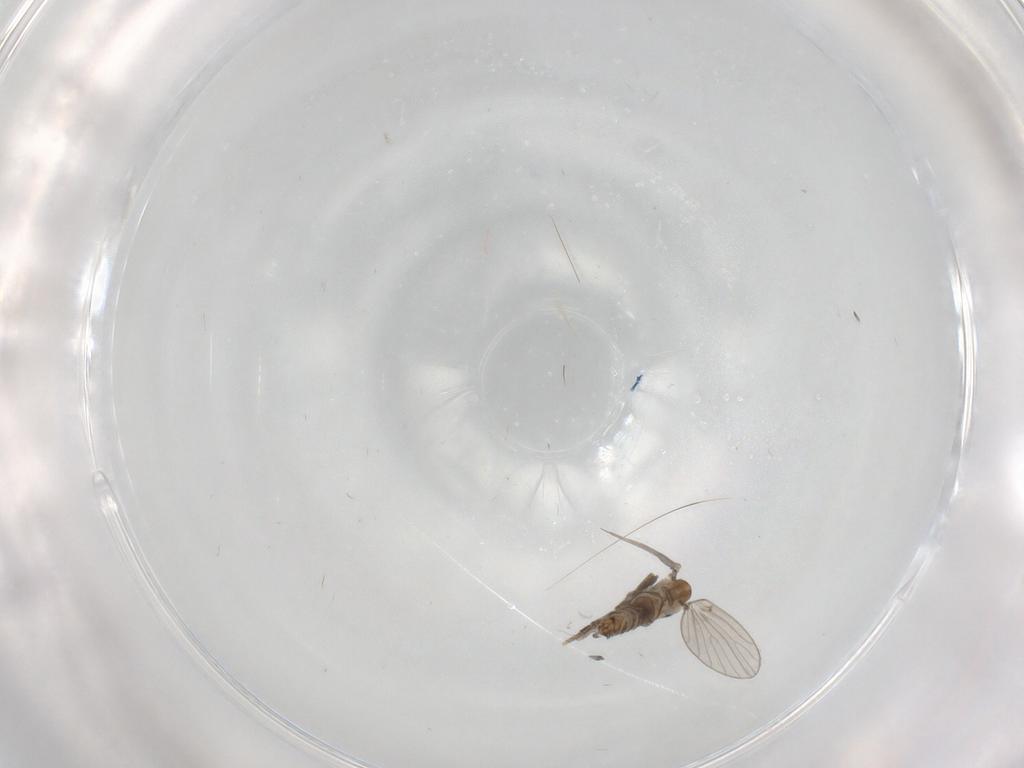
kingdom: Animalia
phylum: Arthropoda
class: Insecta
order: Diptera
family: Psychodidae
